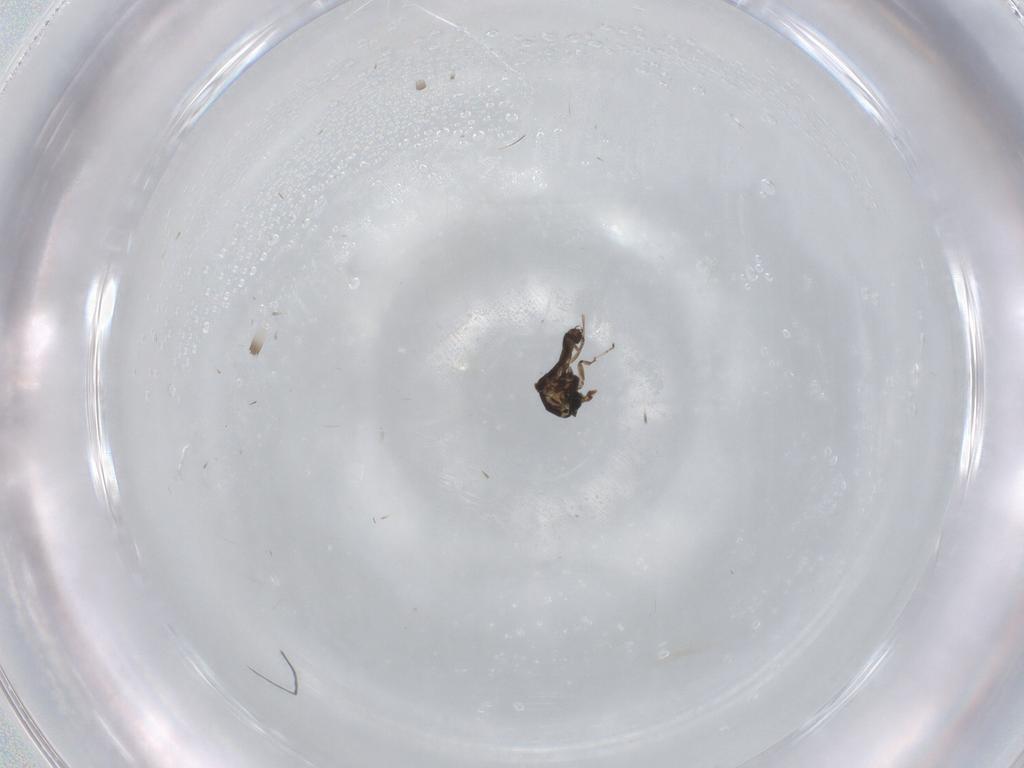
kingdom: Animalia
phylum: Arthropoda
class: Insecta
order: Diptera
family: Ceratopogonidae
